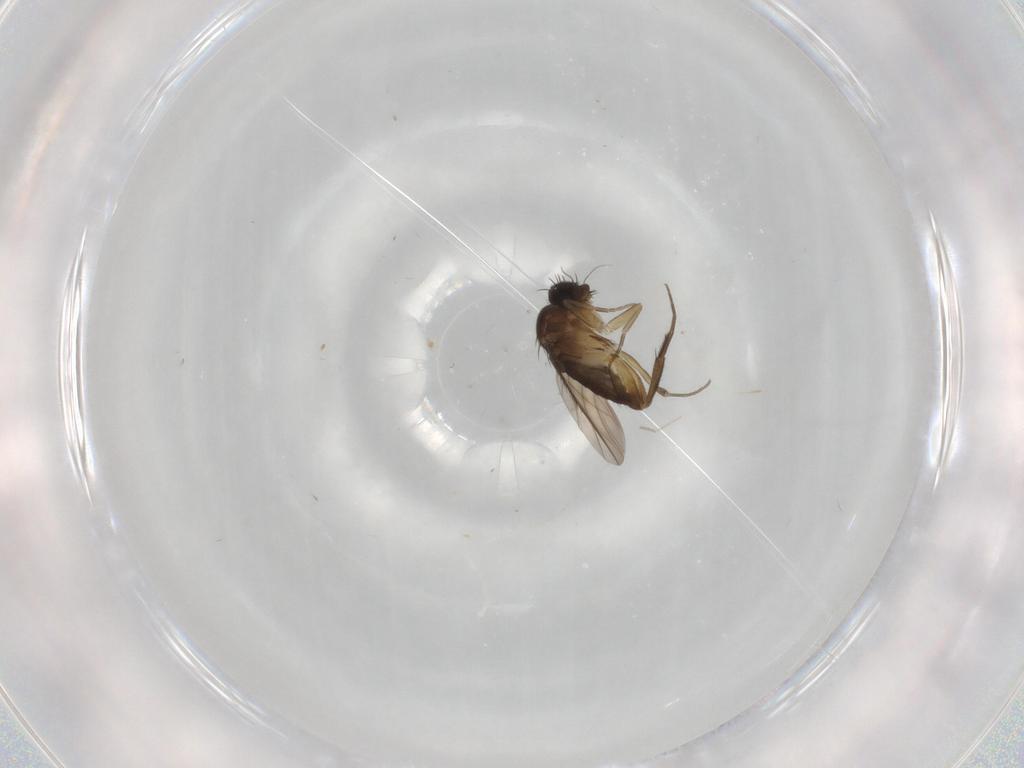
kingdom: Animalia
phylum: Arthropoda
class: Insecta
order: Diptera
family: Phoridae
